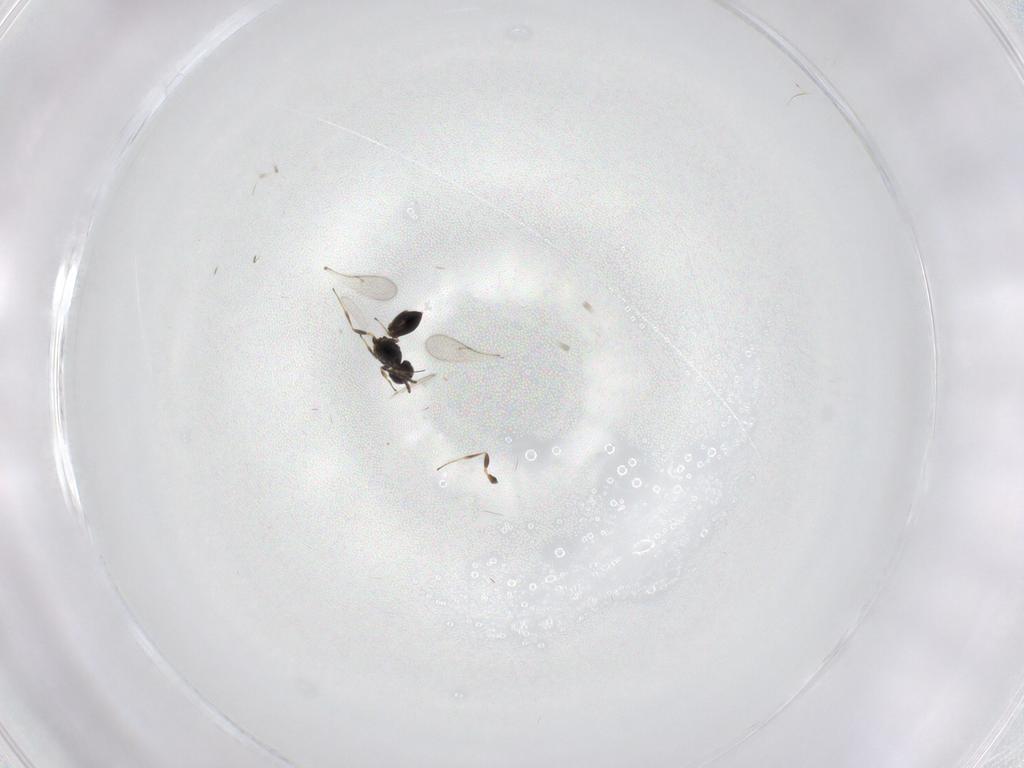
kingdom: Animalia
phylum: Arthropoda
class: Insecta
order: Hymenoptera
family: Scelionidae
